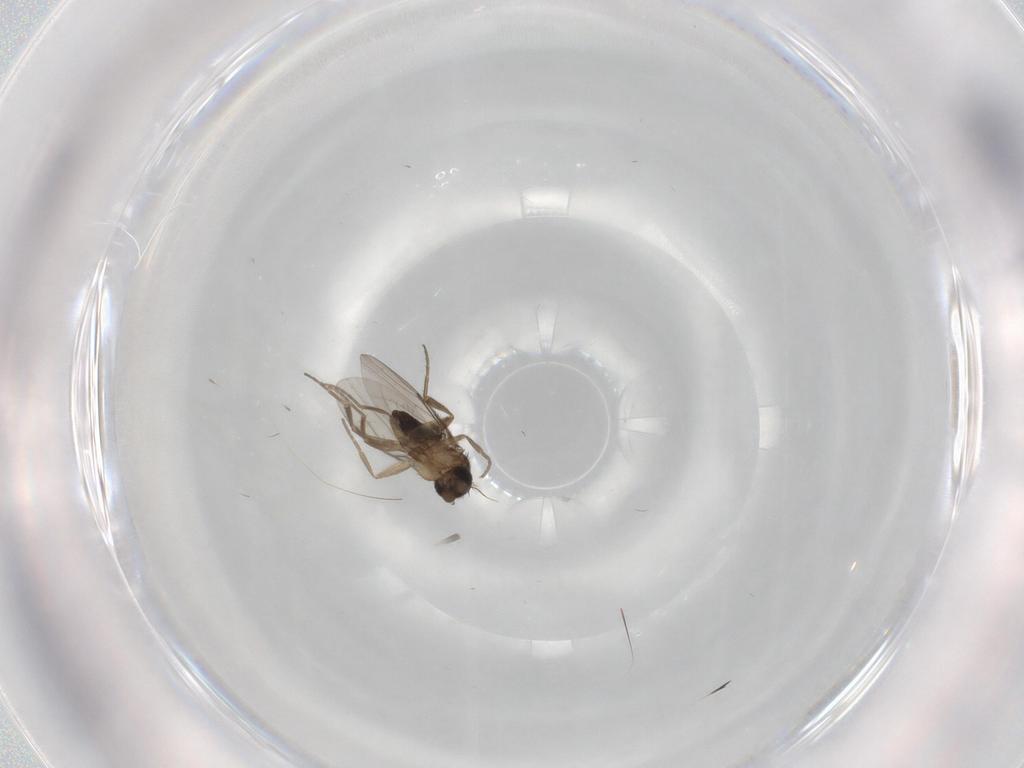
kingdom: Animalia
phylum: Arthropoda
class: Insecta
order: Diptera
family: Phoridae
